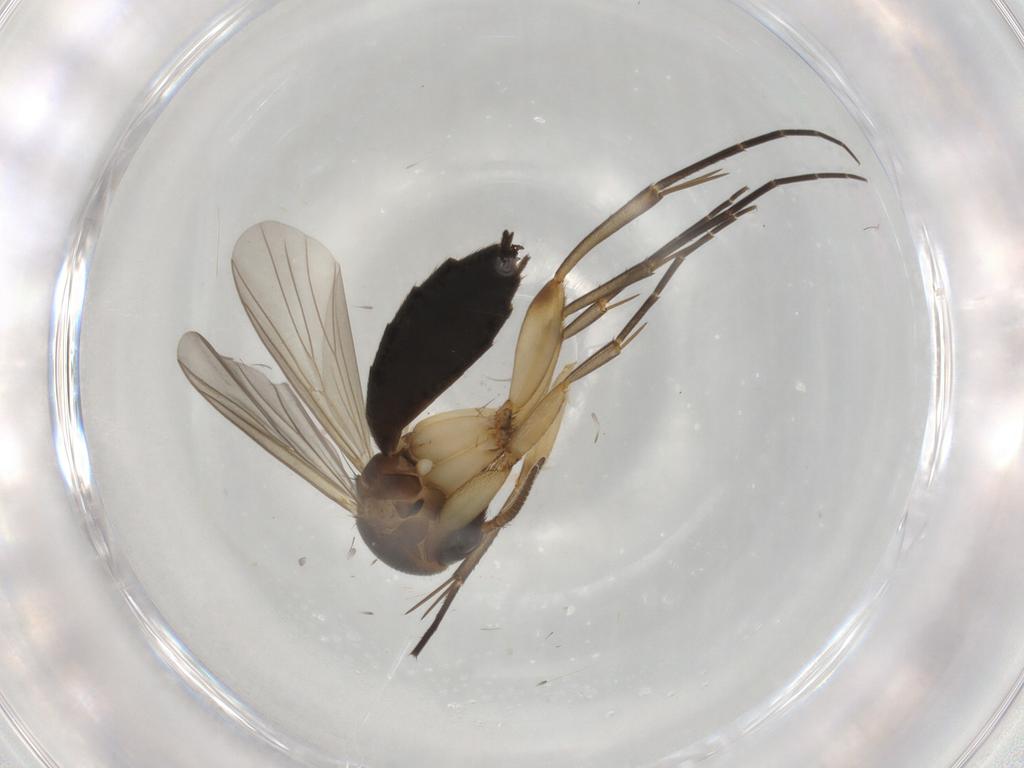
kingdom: Animalia
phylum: Arthropoda
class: Insecta
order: Diptera
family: Mycetophilidae
